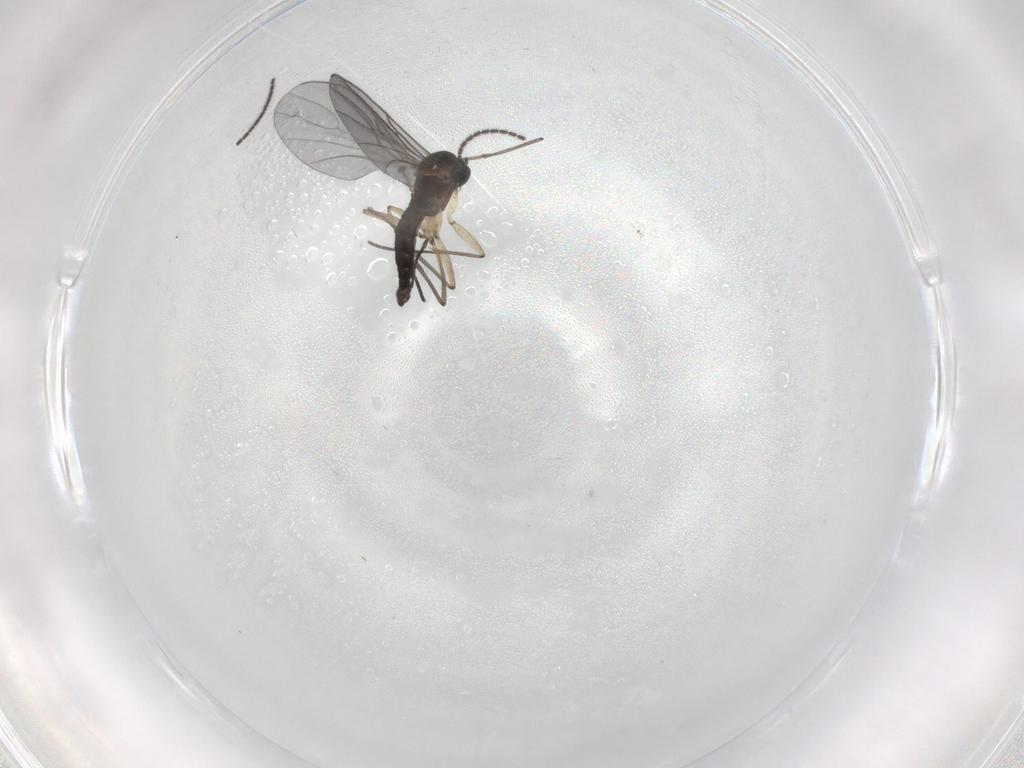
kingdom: Animalia
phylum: Arthropoda
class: Insecta
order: Diptera
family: Sciaridae
